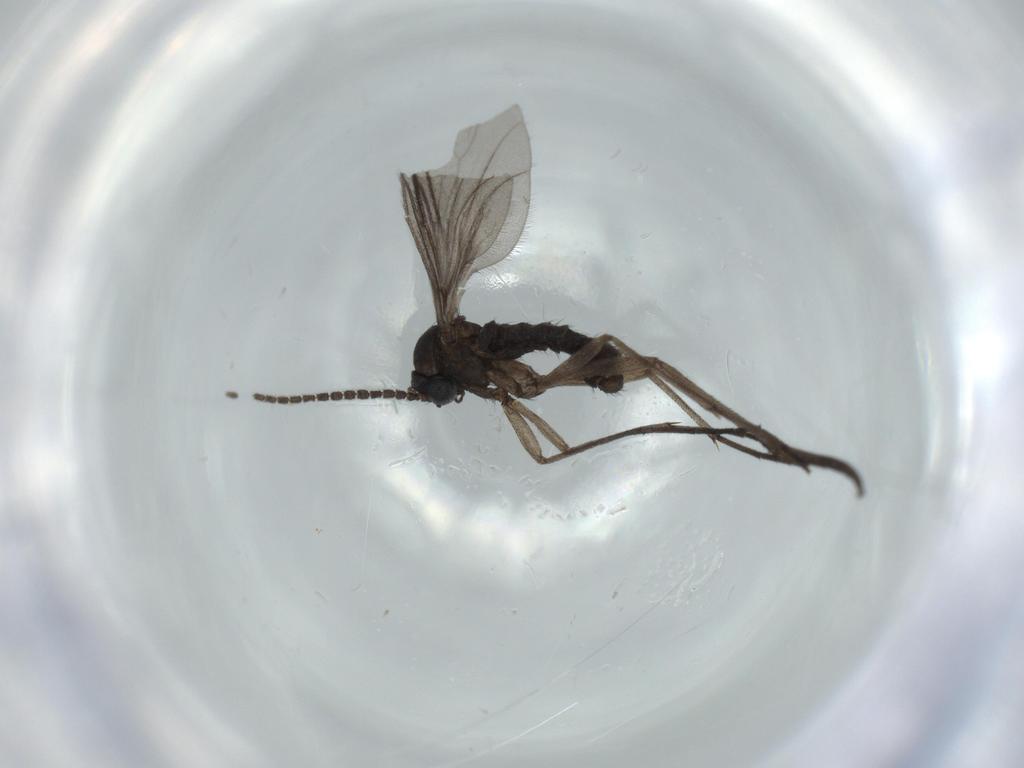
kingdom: Animalia
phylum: Arthropoda
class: Insecta
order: Diptera
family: Sciaridae
